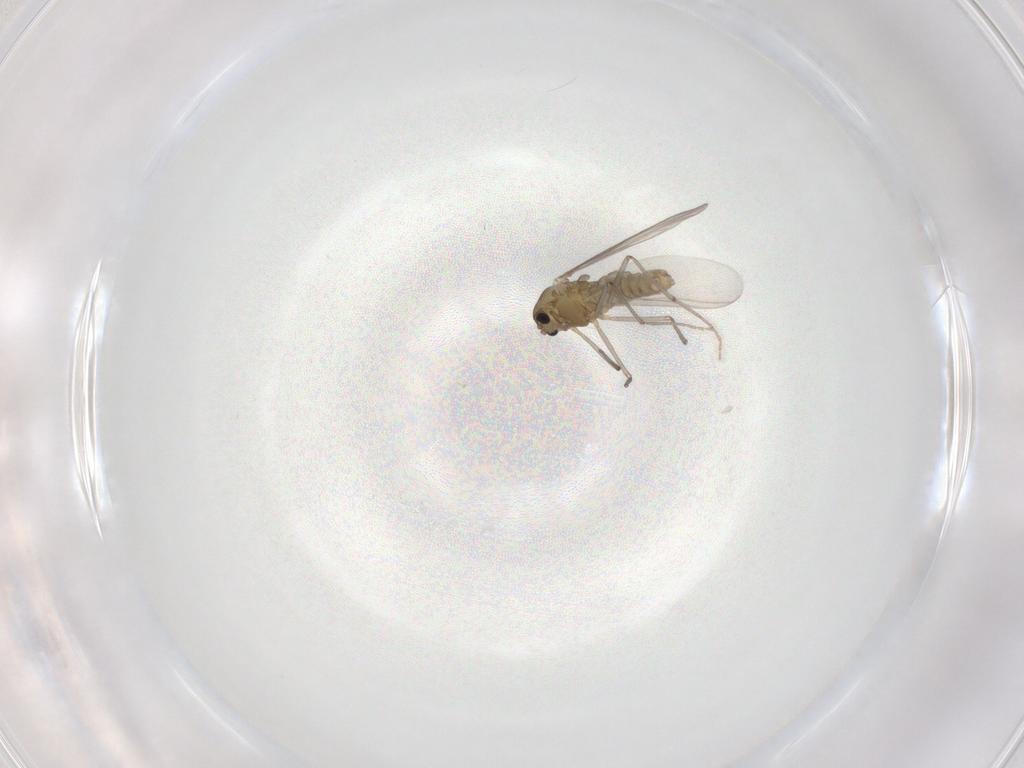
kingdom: Animalia
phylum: Arthropoda
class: Insecta
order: Diptera
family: Chironomidae
